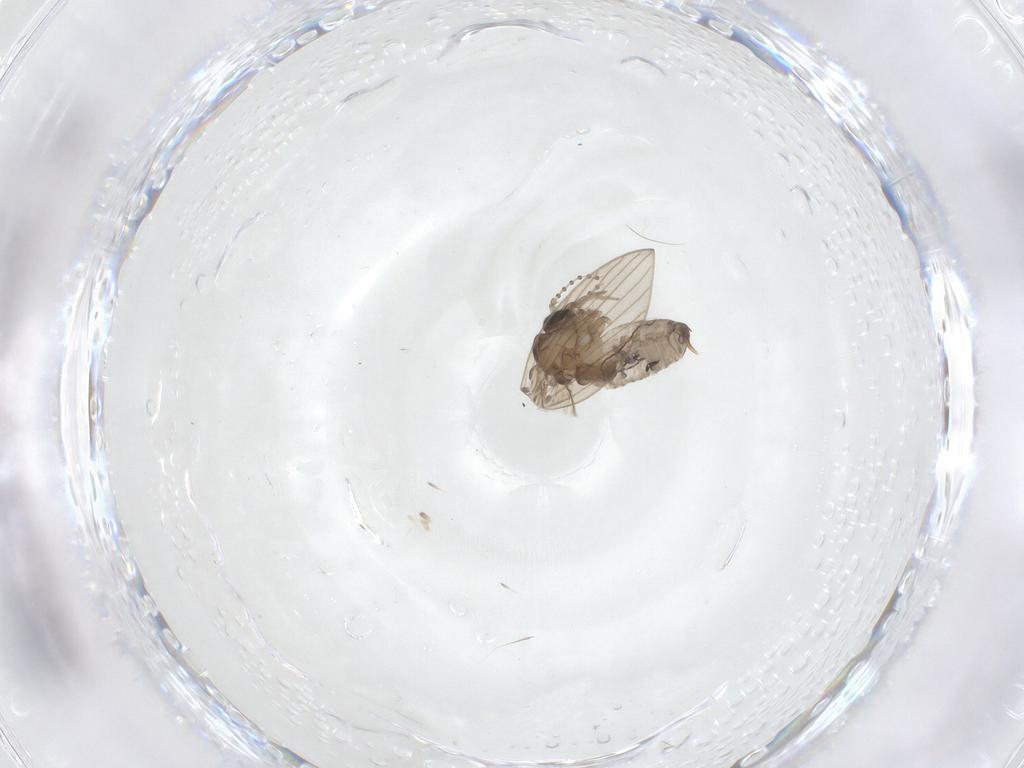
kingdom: Animalia
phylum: Arthropoda
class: Insecta
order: Diptera
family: Psychodidae
